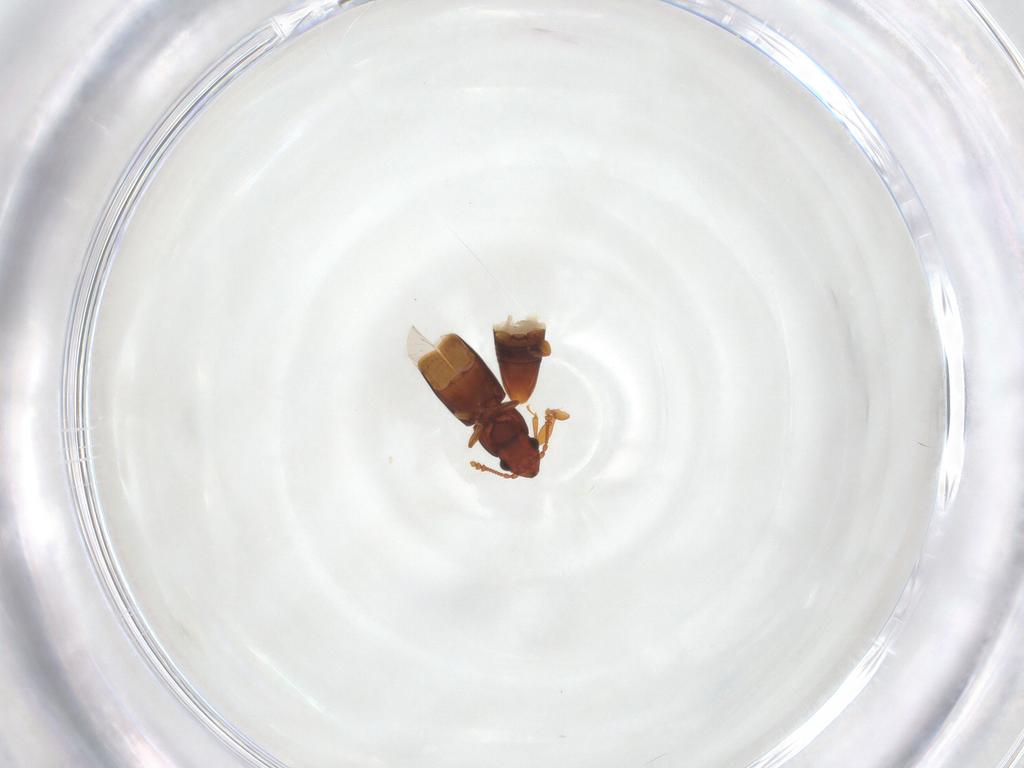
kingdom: Animalia
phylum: Arthropoda
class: Insecta
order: Coleoptera
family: Smicripidae
